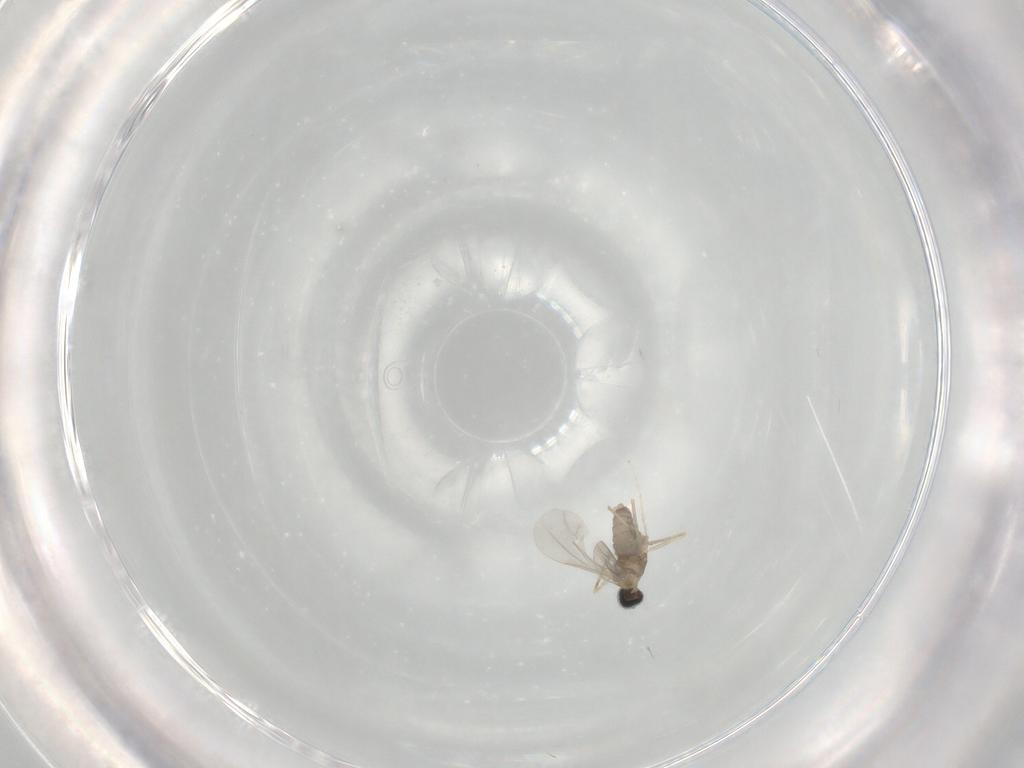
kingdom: Animalia
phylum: Arthropoda
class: Insecta
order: Diptera
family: Cecidomyiidae
